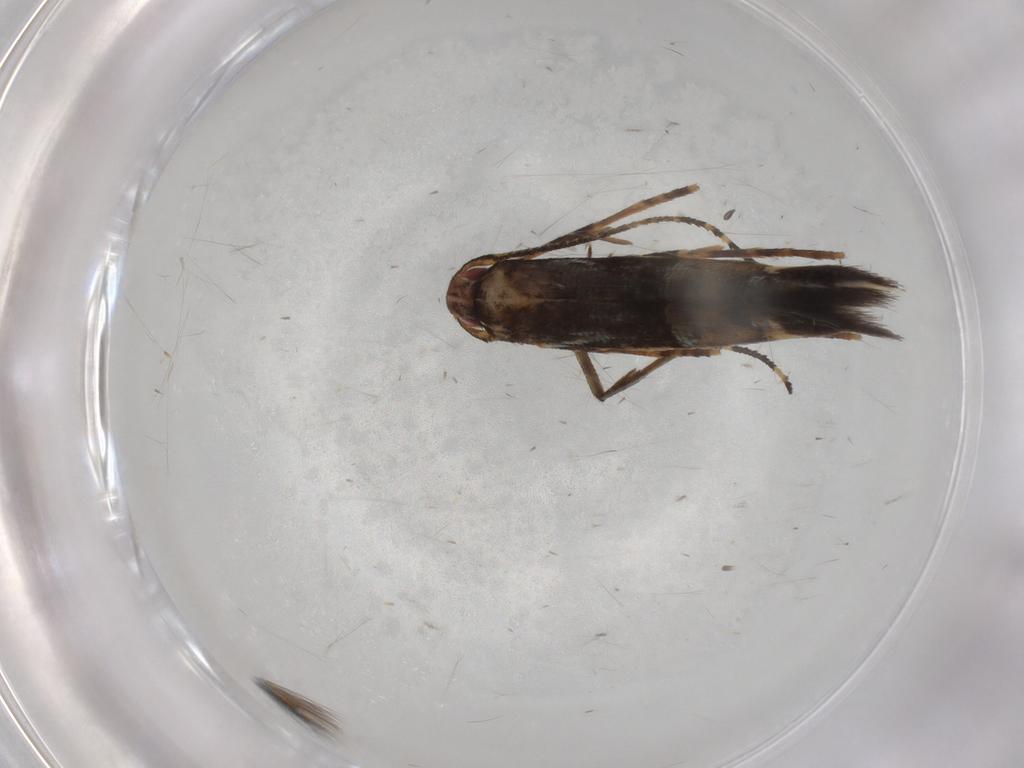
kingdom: Animalia
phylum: Arthropoda
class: Insecta
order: Lepidoptera
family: Cosmopterigidae
